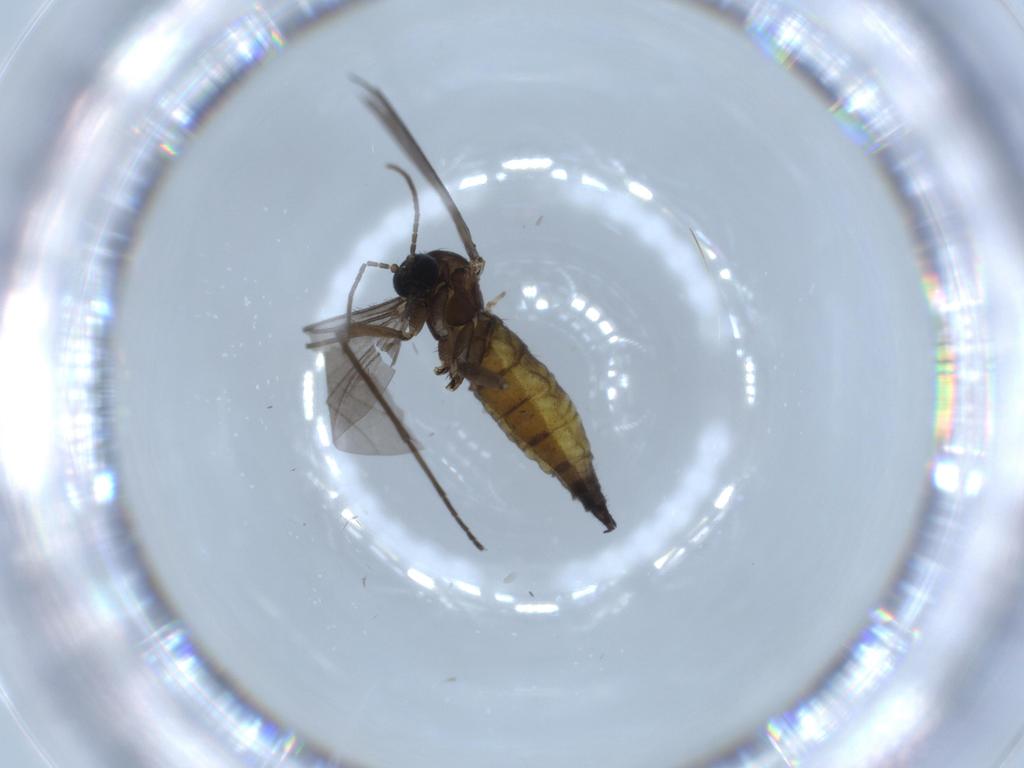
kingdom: Animalia
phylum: Arthropoda
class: Insecta
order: Diptera
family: Sciaridae
